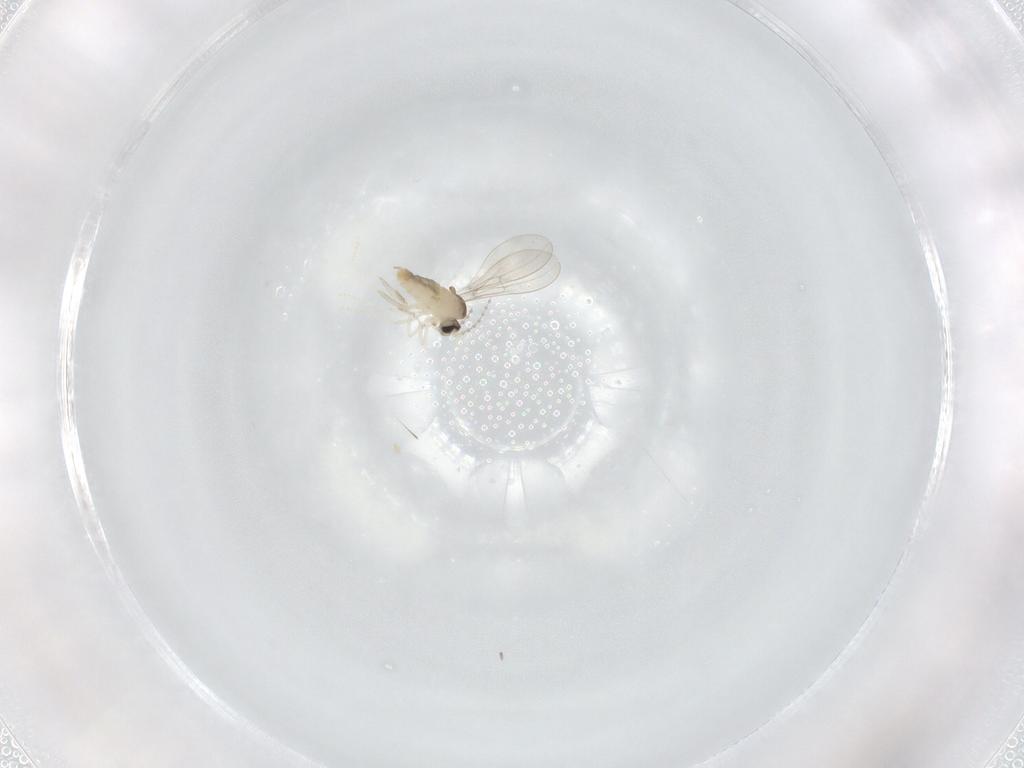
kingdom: Animalia
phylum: Arthropoda
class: Insecta
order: Diptera
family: Cecidomyiidae
